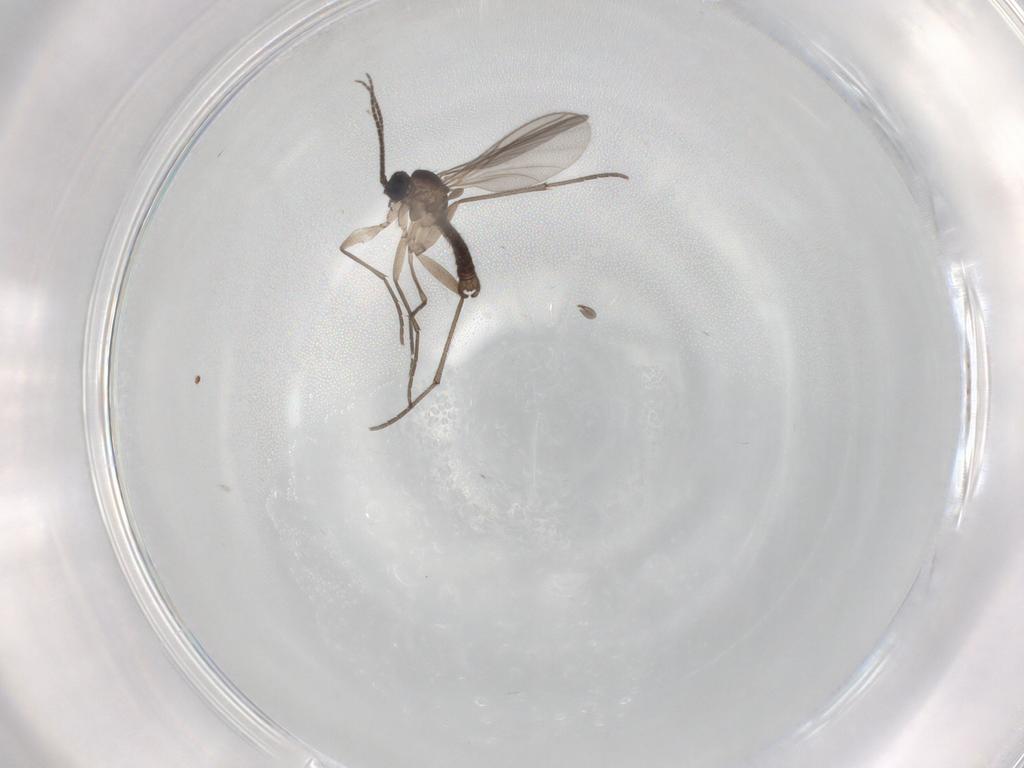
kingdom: Animalia
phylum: Arthropoda
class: Insecta
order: Diptera
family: Sciaridae
